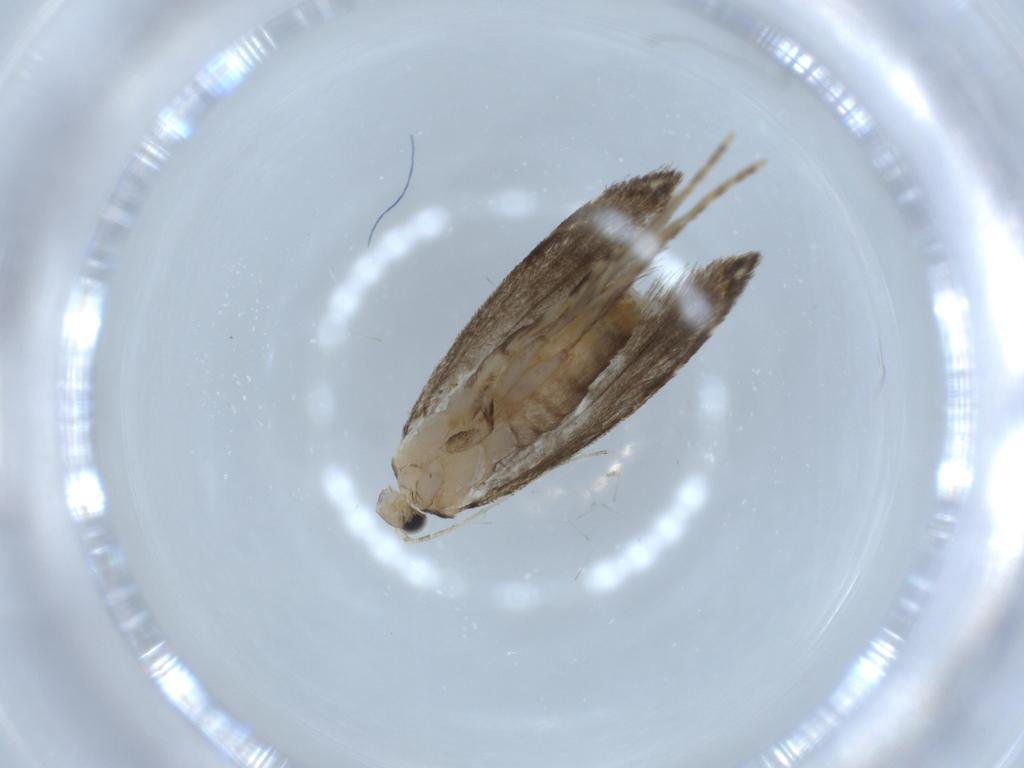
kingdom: Animalia
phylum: Arthropoda
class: Insecta
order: Lepidoptera
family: Tineidae
